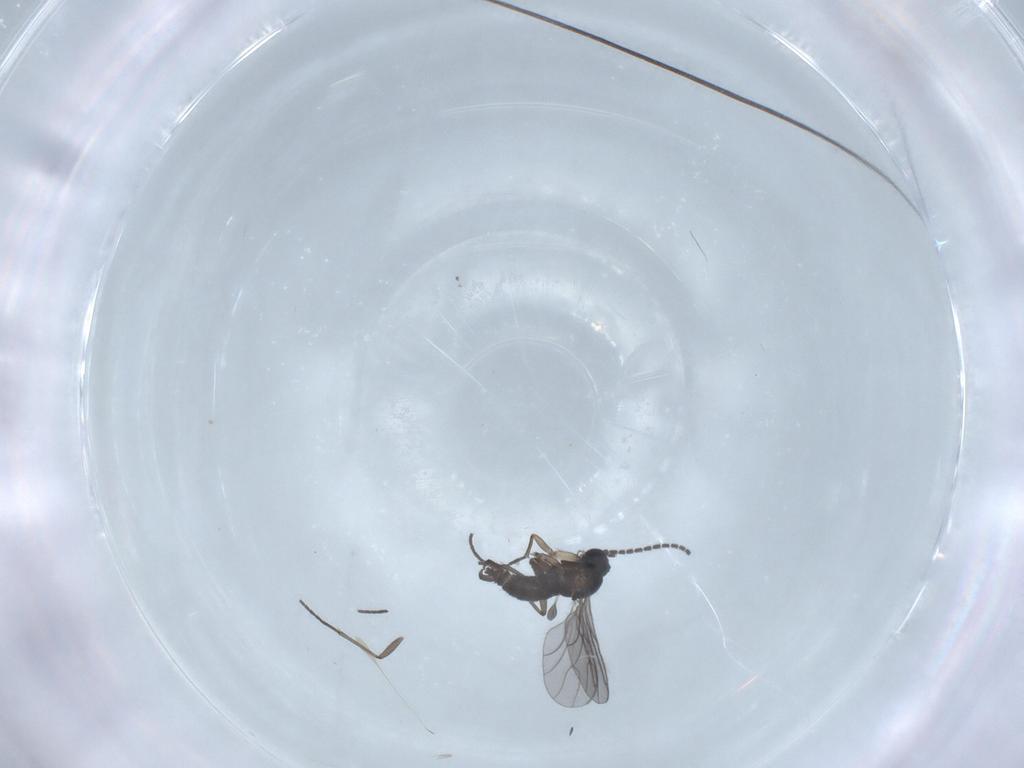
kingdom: Animalia
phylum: Arthropoda
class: Insecta
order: Diptera
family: Sciaridae
